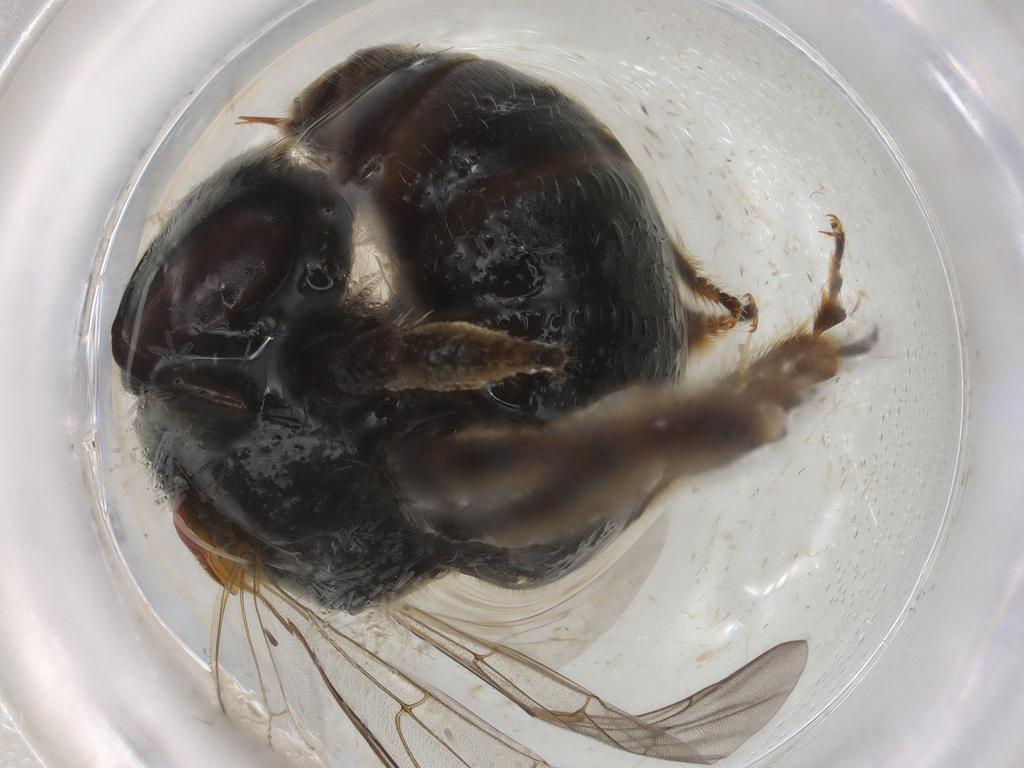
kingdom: Animalia
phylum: Arthropoda
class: Insecta
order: Hymenoptera
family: Halictidae
